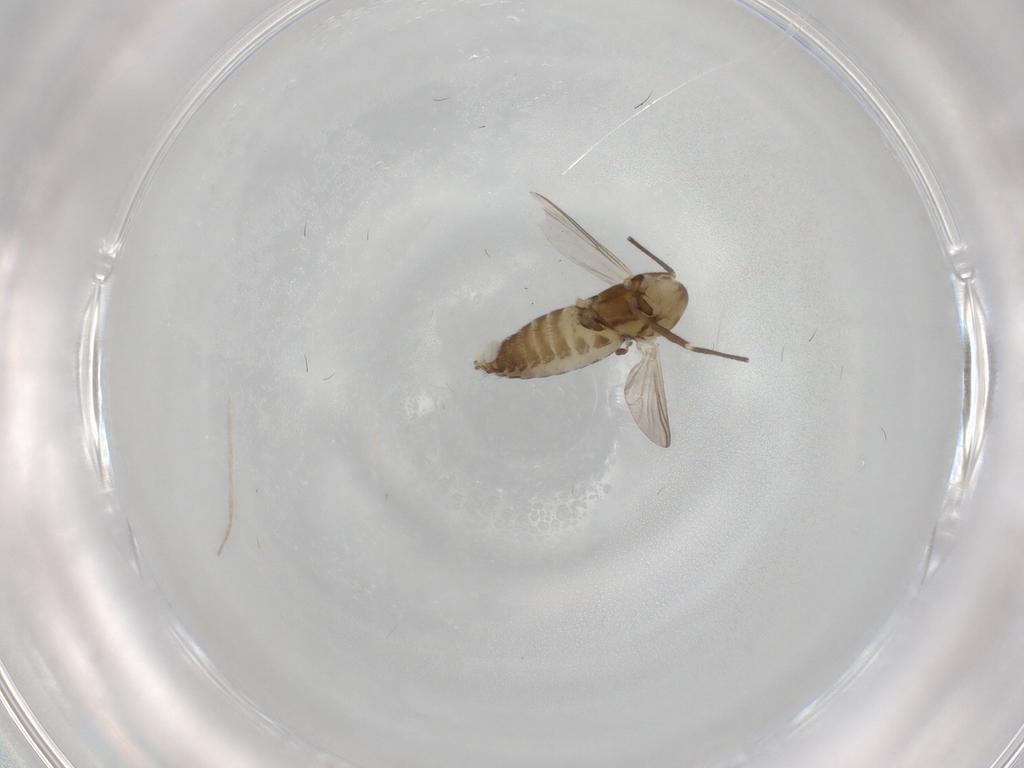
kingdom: Animalia
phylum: Arthropoda
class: Insecta
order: Diptera
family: Chironomidae
